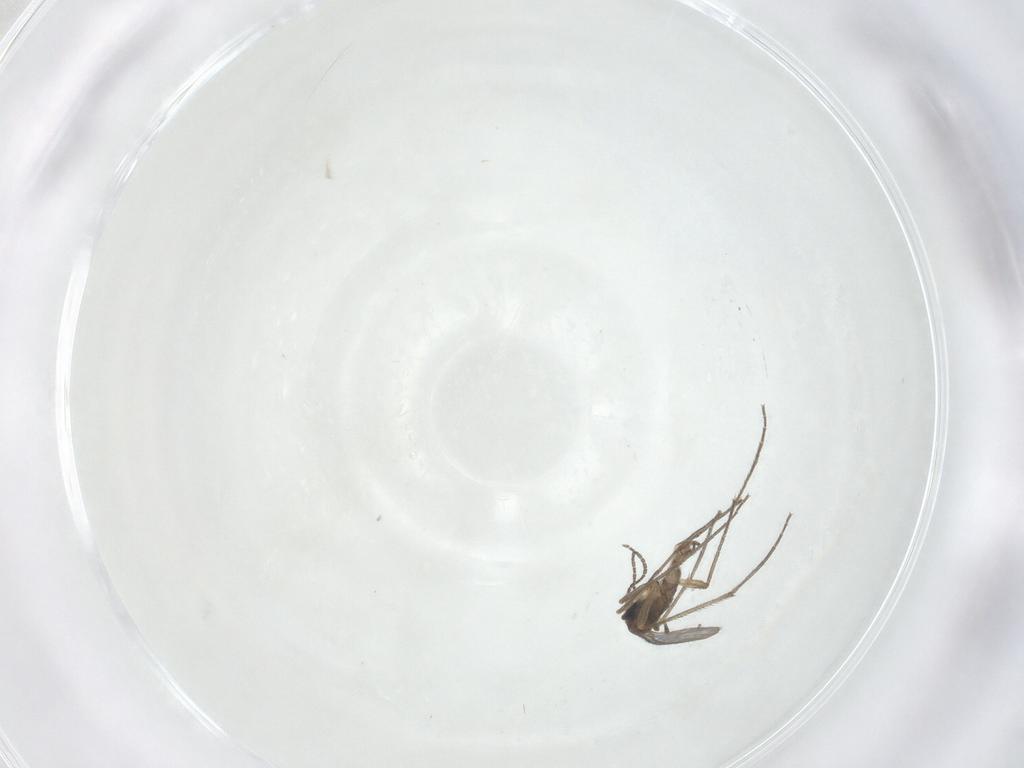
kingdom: Animalia
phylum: Arthropoda
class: Insecta
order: Diptera
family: Sciaridae
